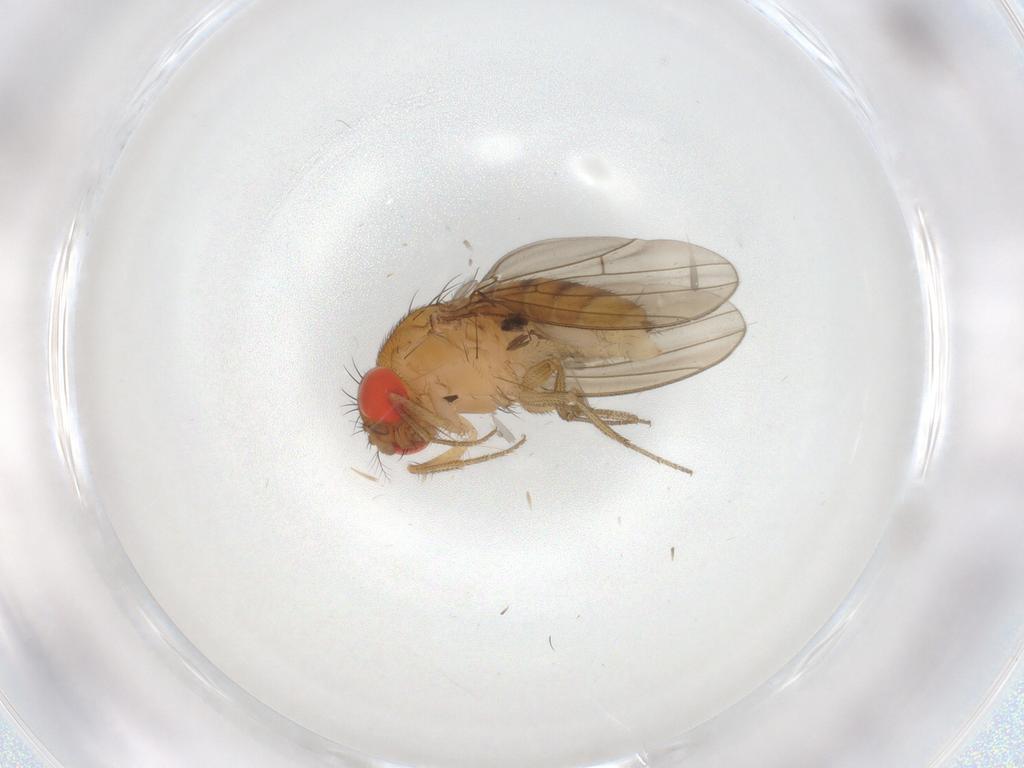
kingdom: Animalia
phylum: Arthropoda
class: Insecta
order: Diptera
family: Drosophilidae
